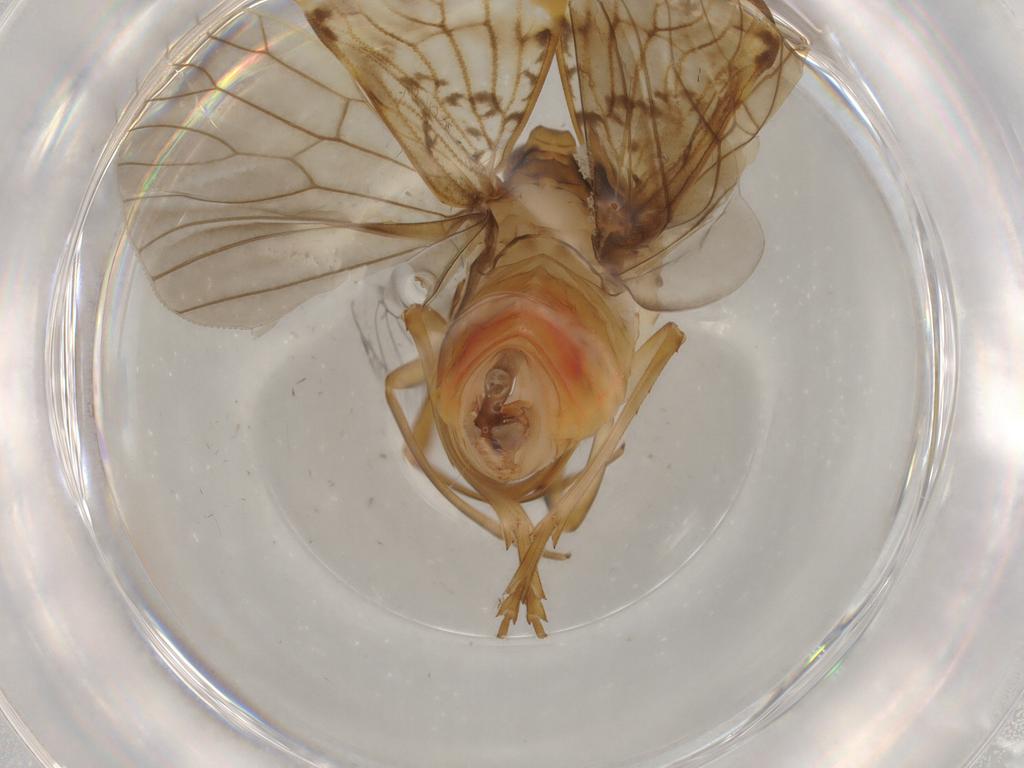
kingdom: Animalia
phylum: Arthropoda
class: Insecta
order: Hemiptera
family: Cixiidae
